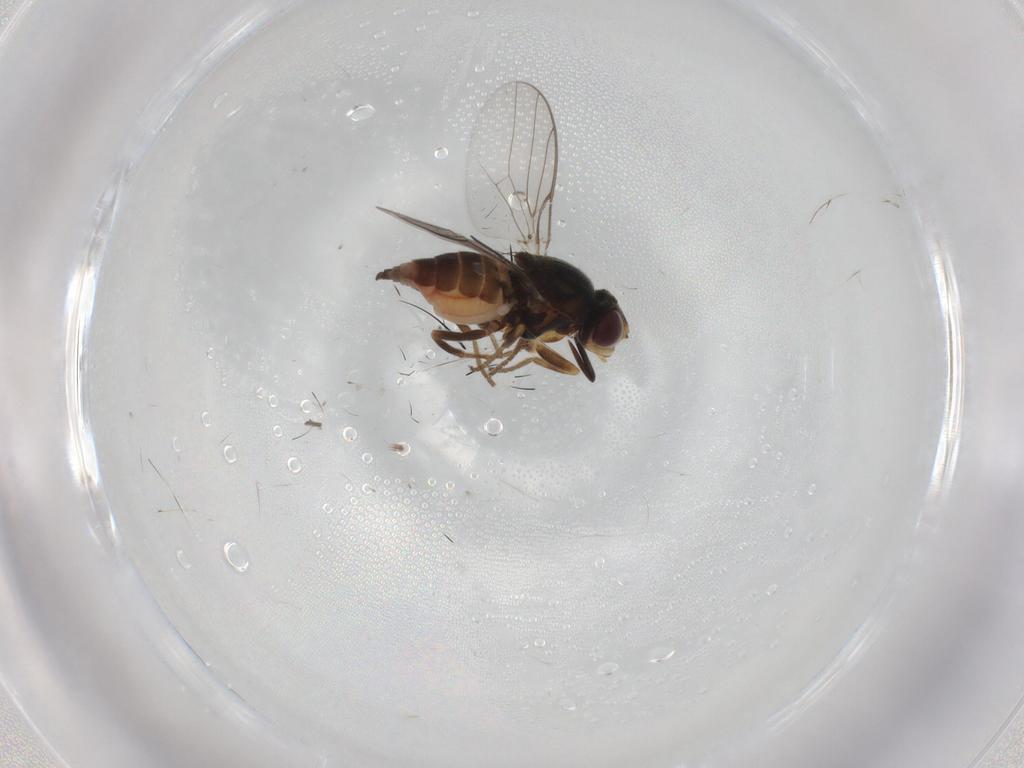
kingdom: Animalia
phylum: Arthropoda
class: Insecta
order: Diptera
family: Chloropidae
